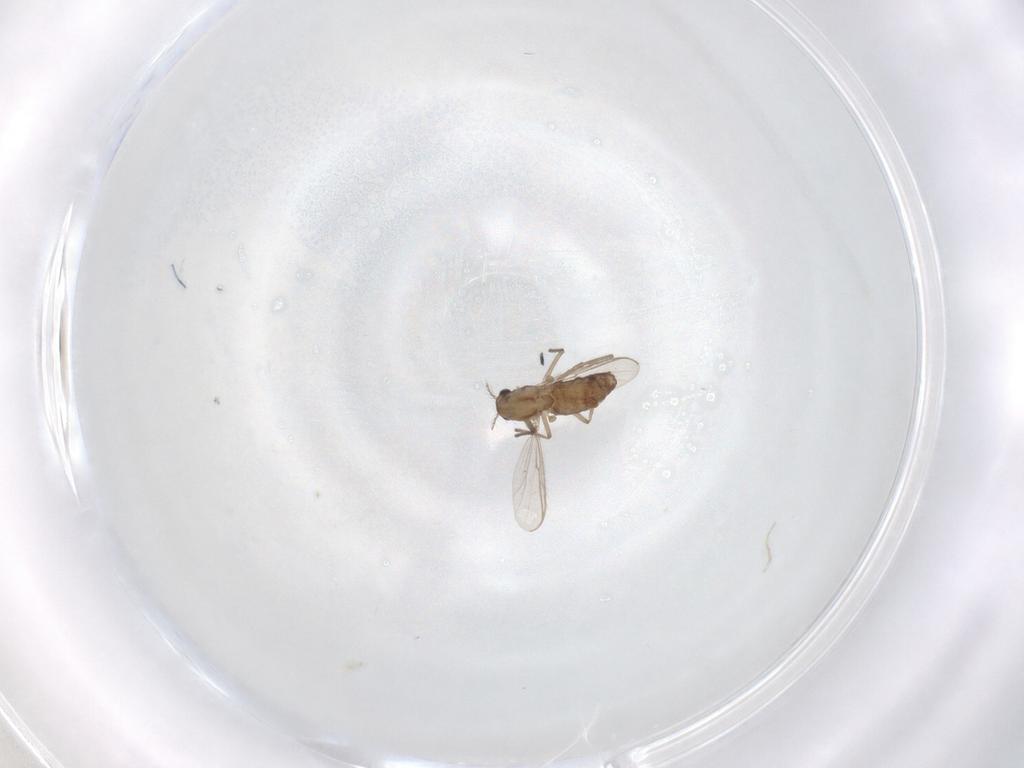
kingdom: Animalia
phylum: Arthropoda
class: Insecta
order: Diptera
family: Chironomidae
